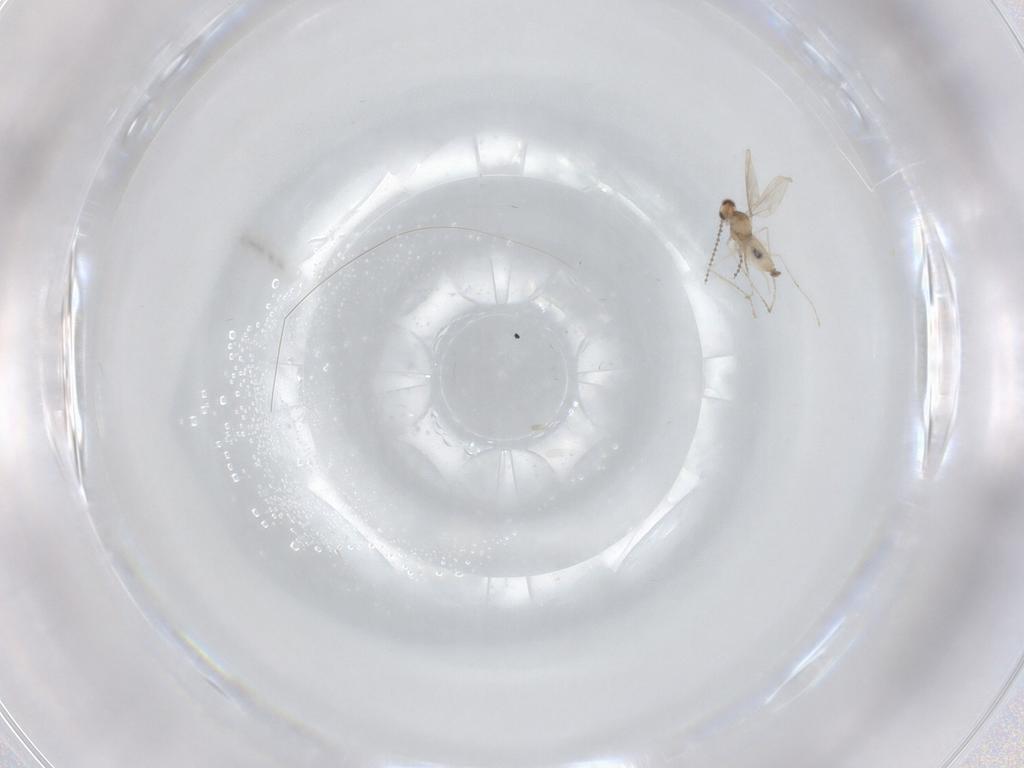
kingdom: Animalia
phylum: Arthropoda
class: Insecta
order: Diptera
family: Cecidomyiidae
